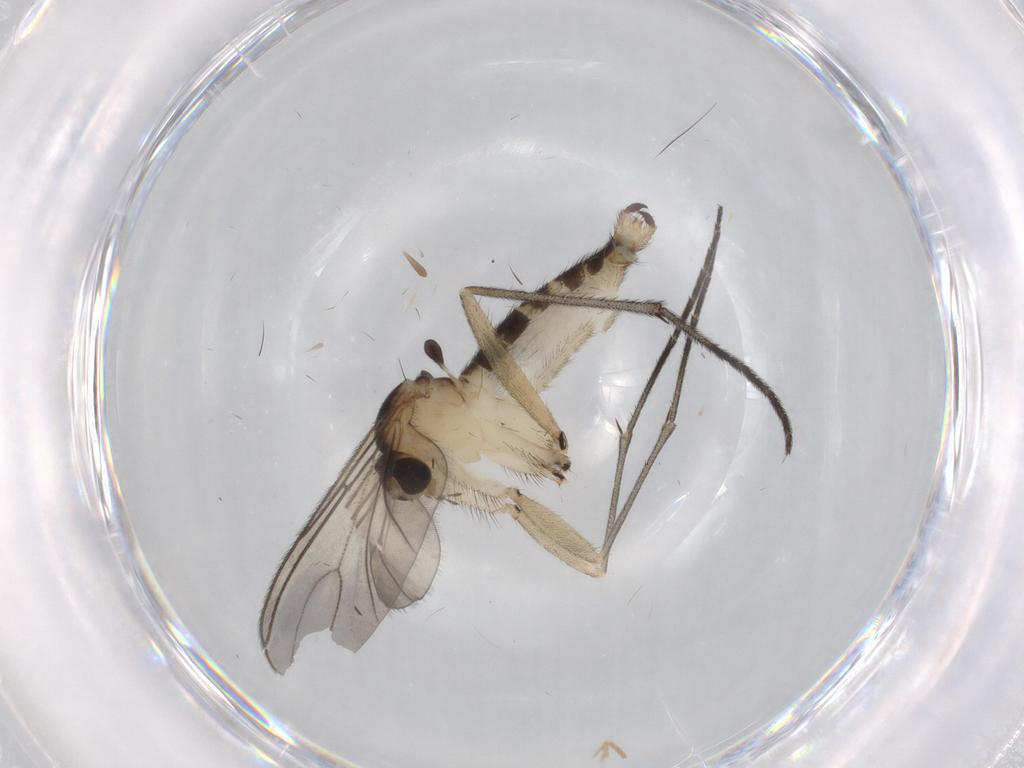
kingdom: Animalia
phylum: Arthropoda
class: Insecta
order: Diptera
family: Sciaridae
